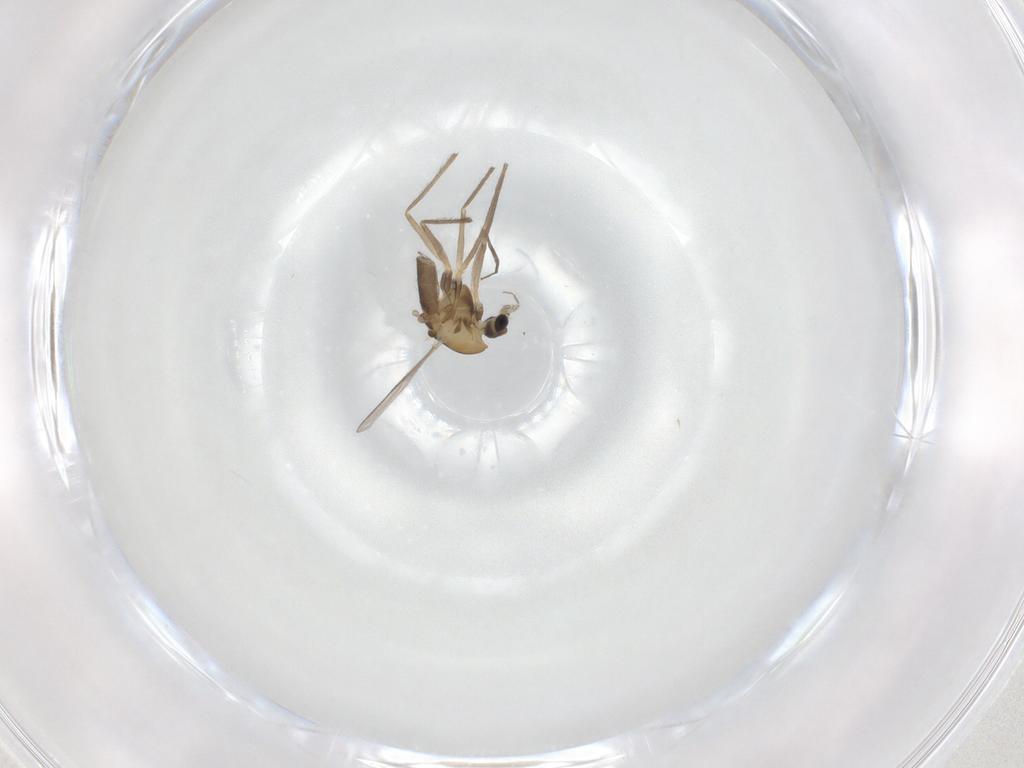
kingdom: Animalia
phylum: Arthropoda
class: Insecta
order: Diptera
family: Chironomidae
